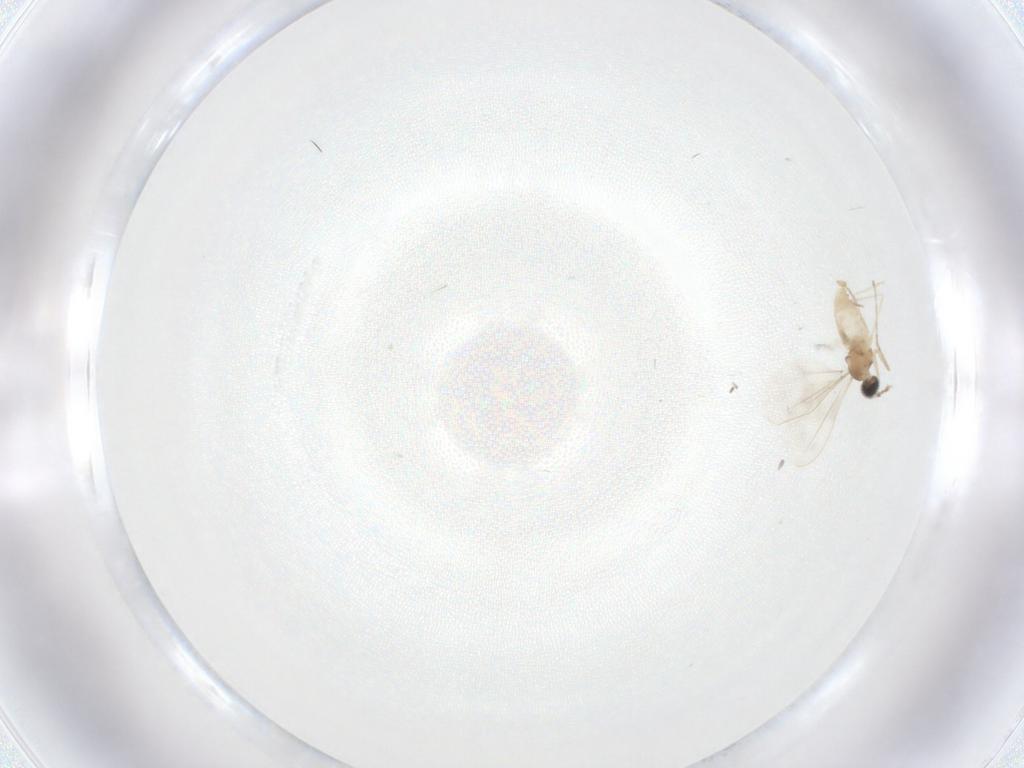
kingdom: Animalia
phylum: Arthropoda
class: Insecta
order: Diptera
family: Cecidomyiidae
